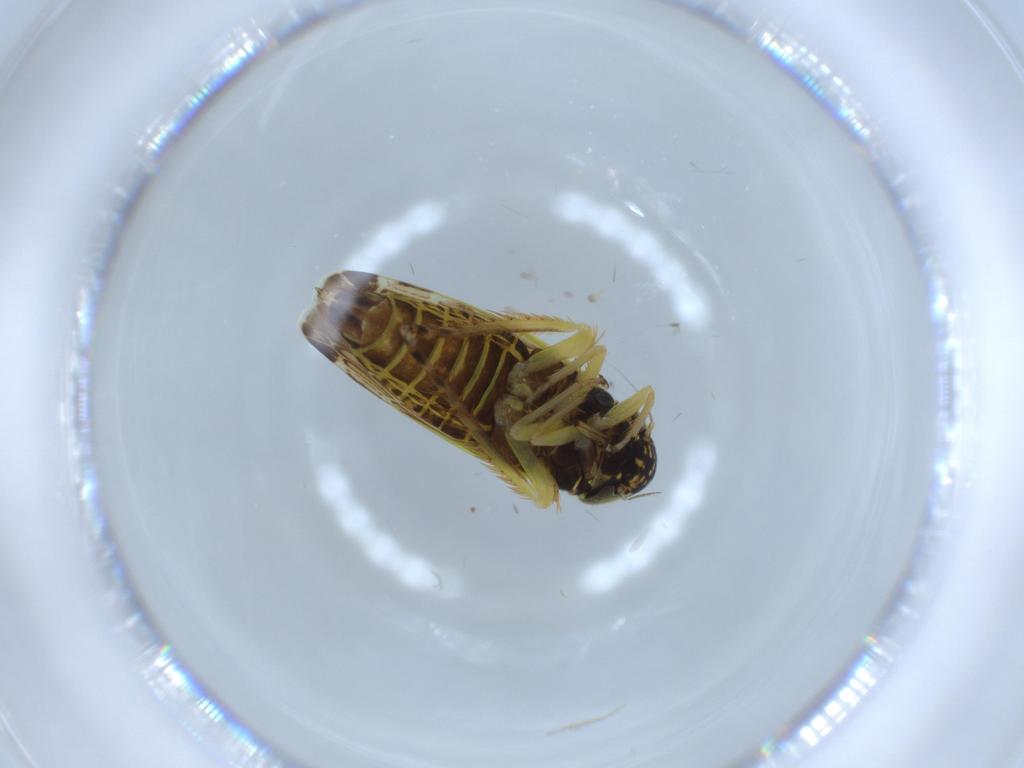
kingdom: Animalia
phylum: Arthropoda
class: Insecta
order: Hemiptera
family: Cicadellidae
